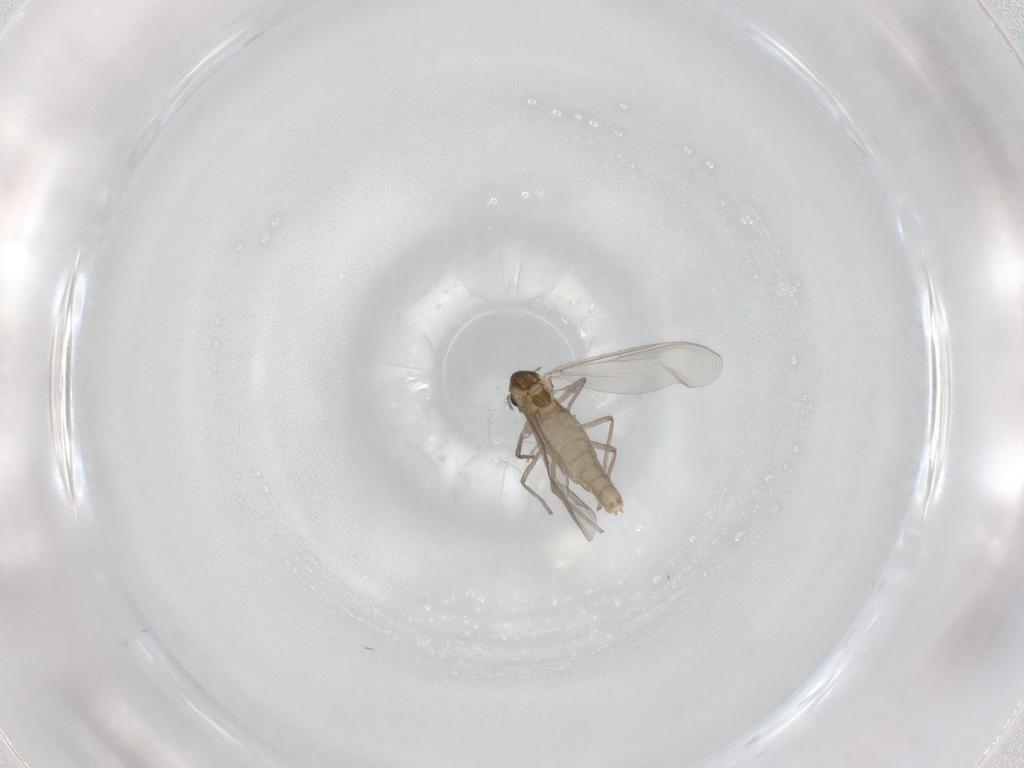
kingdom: Animalia
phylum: Arthropoda
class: Insecta
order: Diptera
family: Chironomidae
